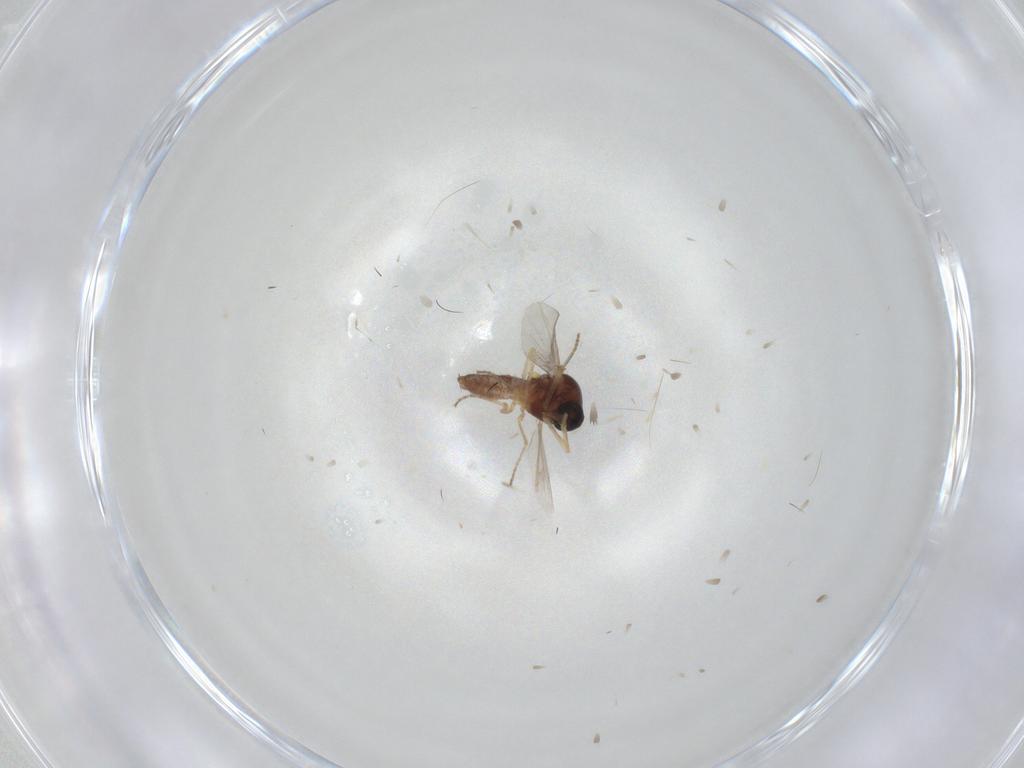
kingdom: Animalia
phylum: Arthropoda
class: Insecta
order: Diptera
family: Ceratopogonidae
